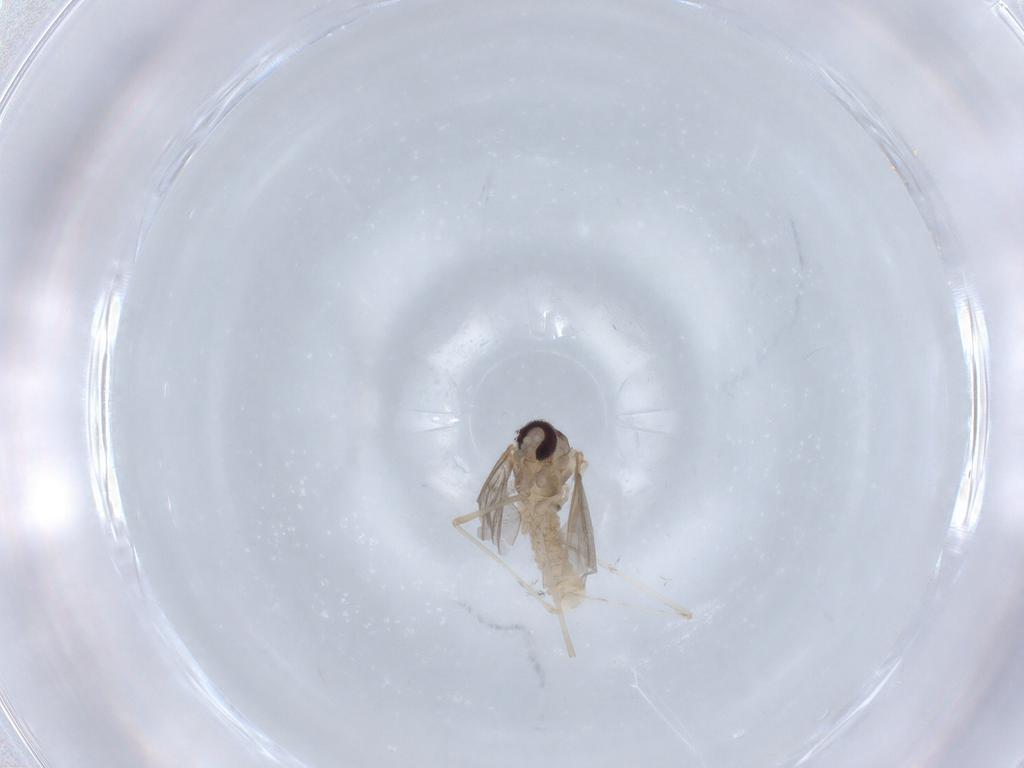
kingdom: Animalia
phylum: Arthropoda
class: Insecta
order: Diptera
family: Cecidomyiidae
